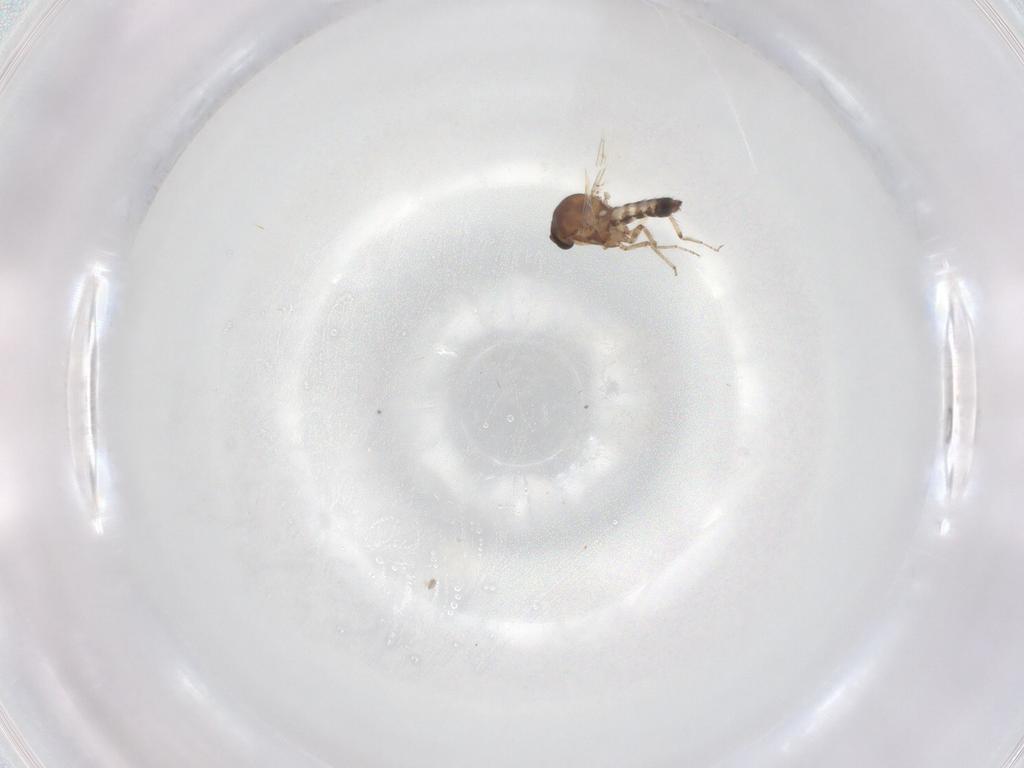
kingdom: Animalia
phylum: Arthropoda
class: Insecta
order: Diptera
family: Ceratopogonidae
